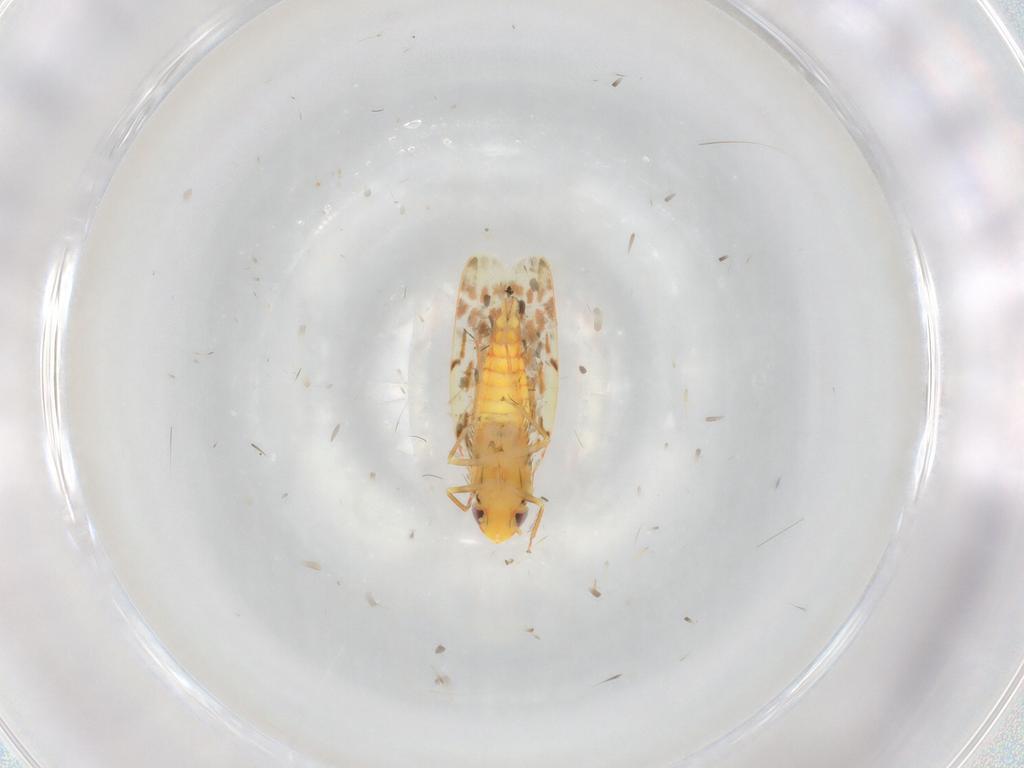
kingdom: Animalia
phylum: Arthropoda
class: Insecta
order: Hemiptera
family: Cicadellidae
